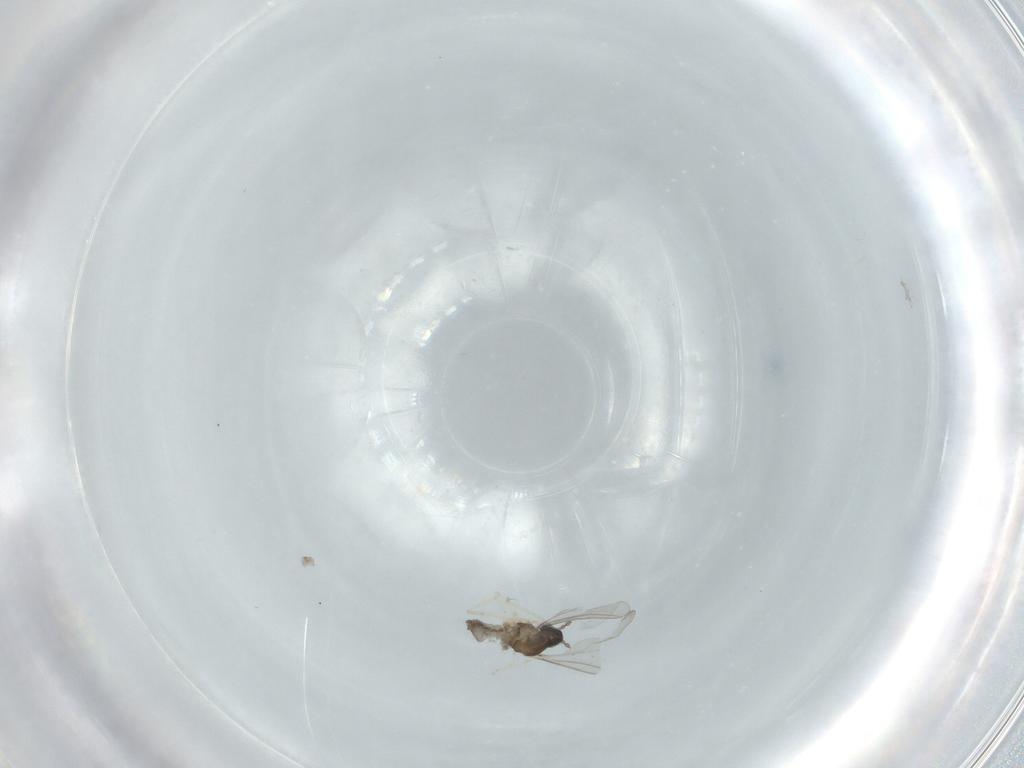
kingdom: Animalia
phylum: Arthropoda
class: Insecta
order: Diptera
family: Cecidomyiidae
